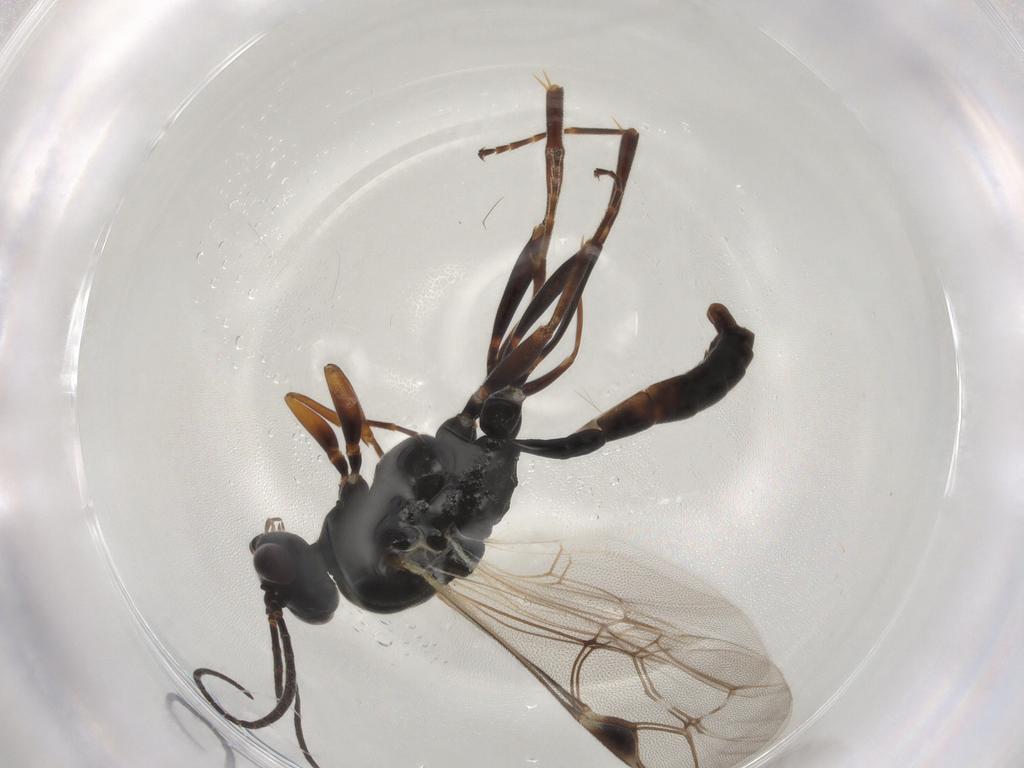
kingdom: Animalia
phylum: Arthropoda
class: Insecta
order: Hymenoptera
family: Ichneumonidae
